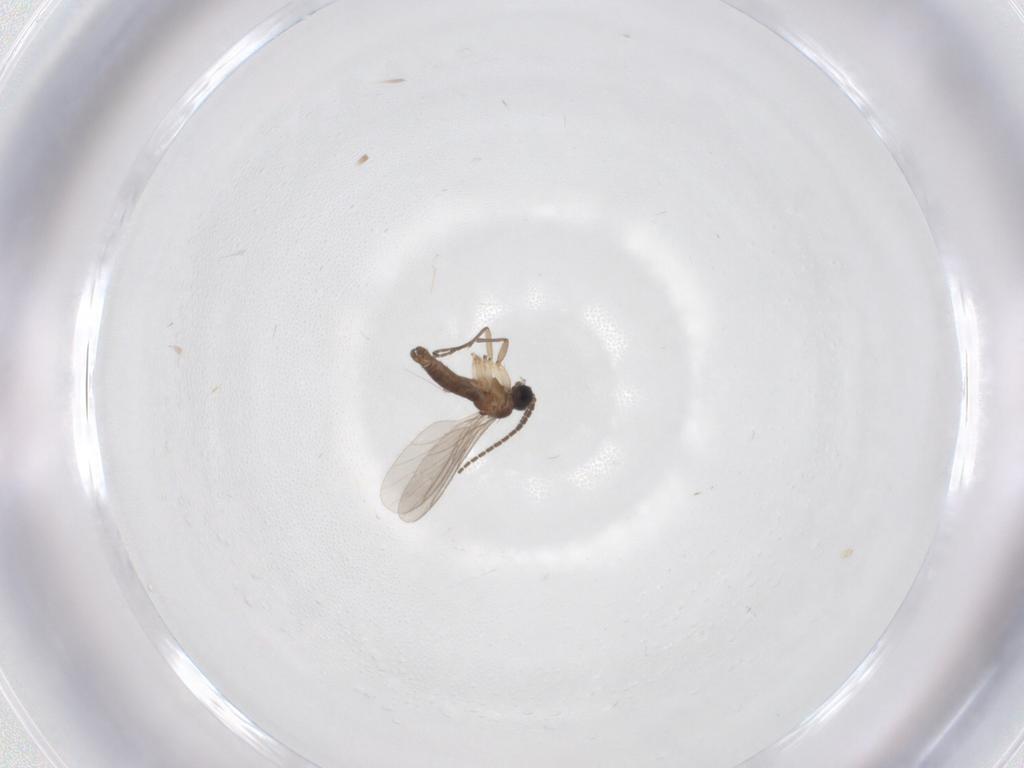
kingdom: Animalia
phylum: Arthropoda
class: Insecta
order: Diptera
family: Sciaridae
